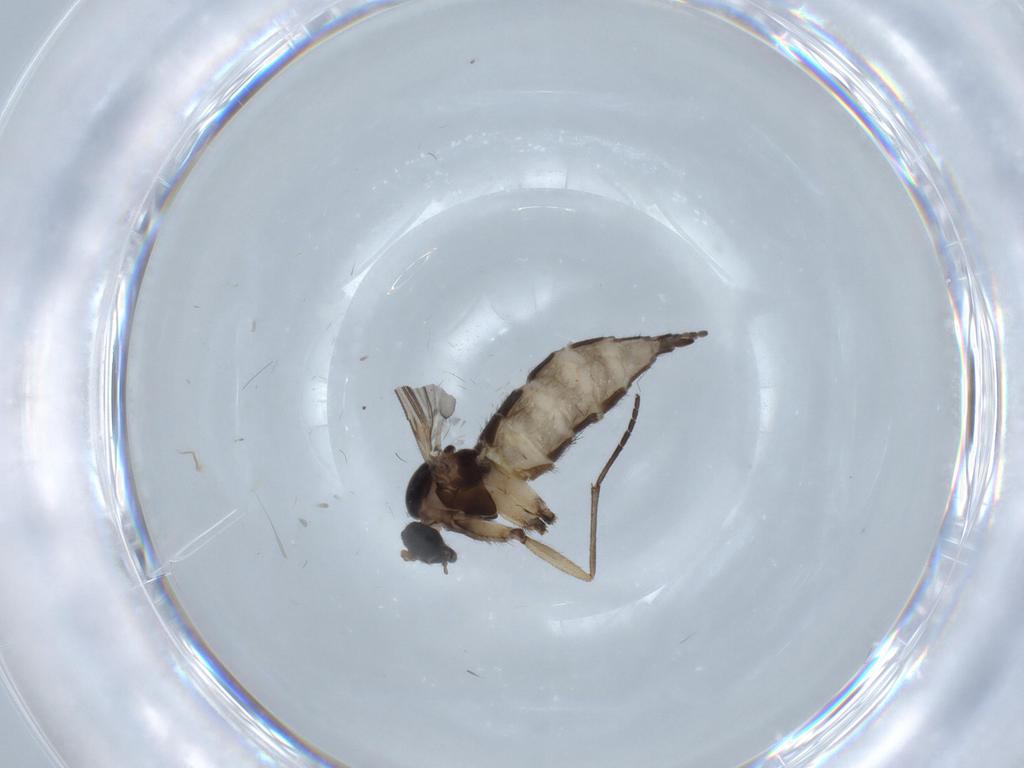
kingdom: Animalia
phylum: Arthropoda
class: Insecta
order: Diptera
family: Sciaridae
